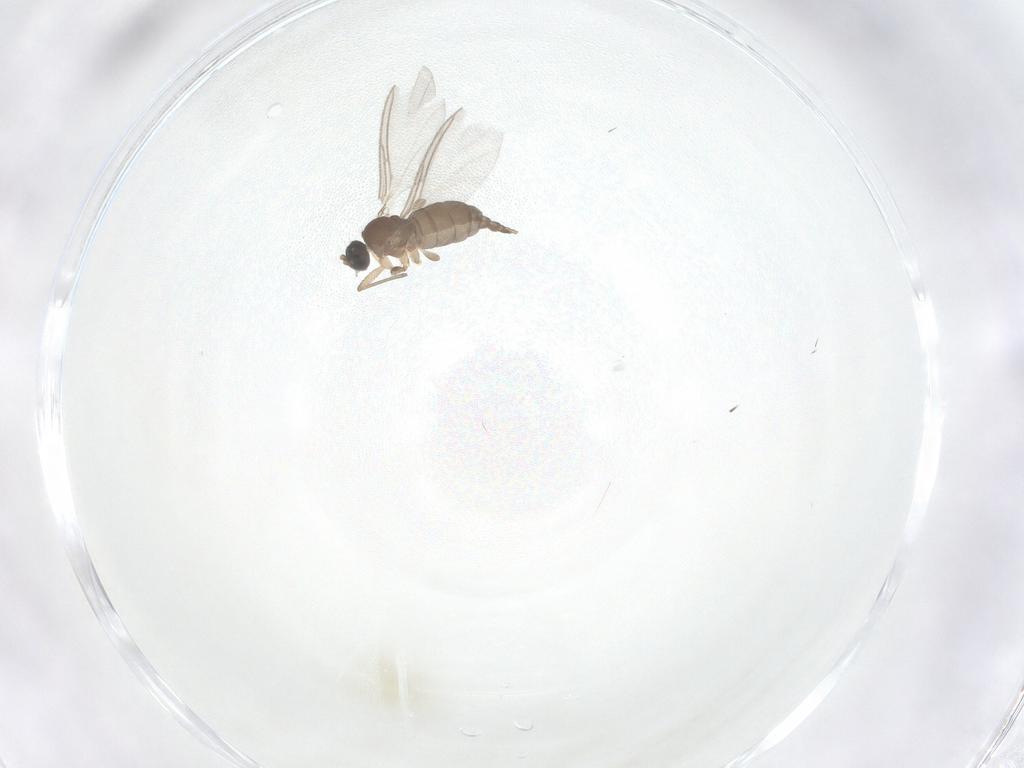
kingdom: Animalia
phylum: Arthropoda
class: Insecta
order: Diptera
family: Sciaridae
